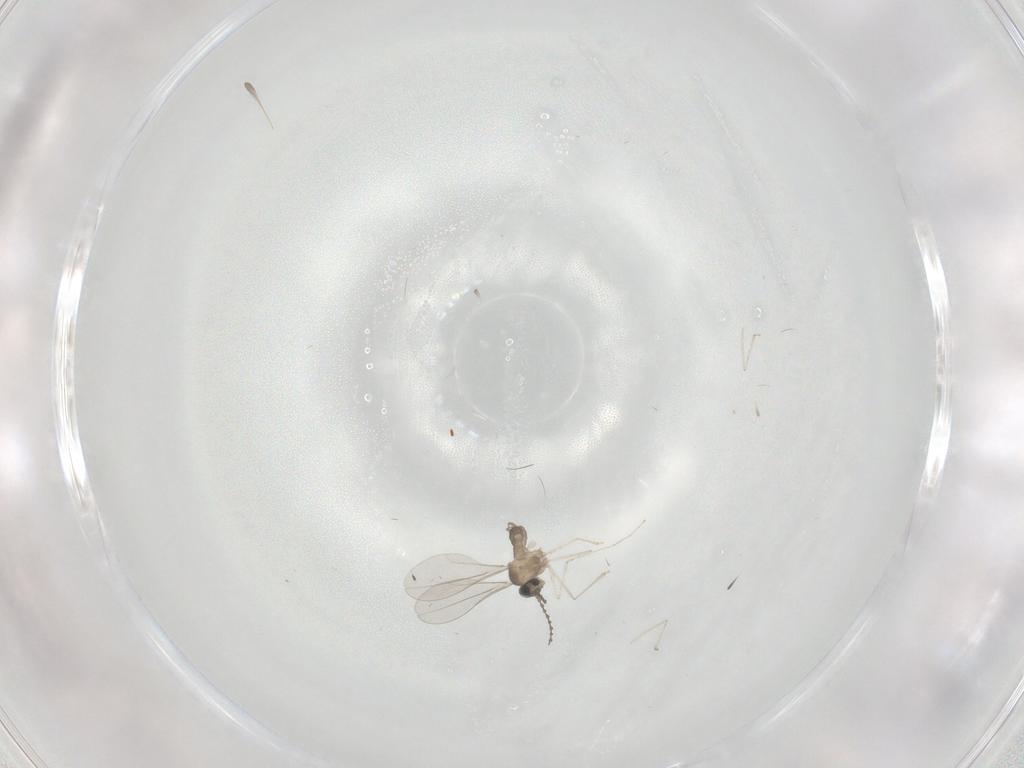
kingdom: Animalia
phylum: Arthropoda
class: Insecta
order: Diptera
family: Cecidomyiidae
